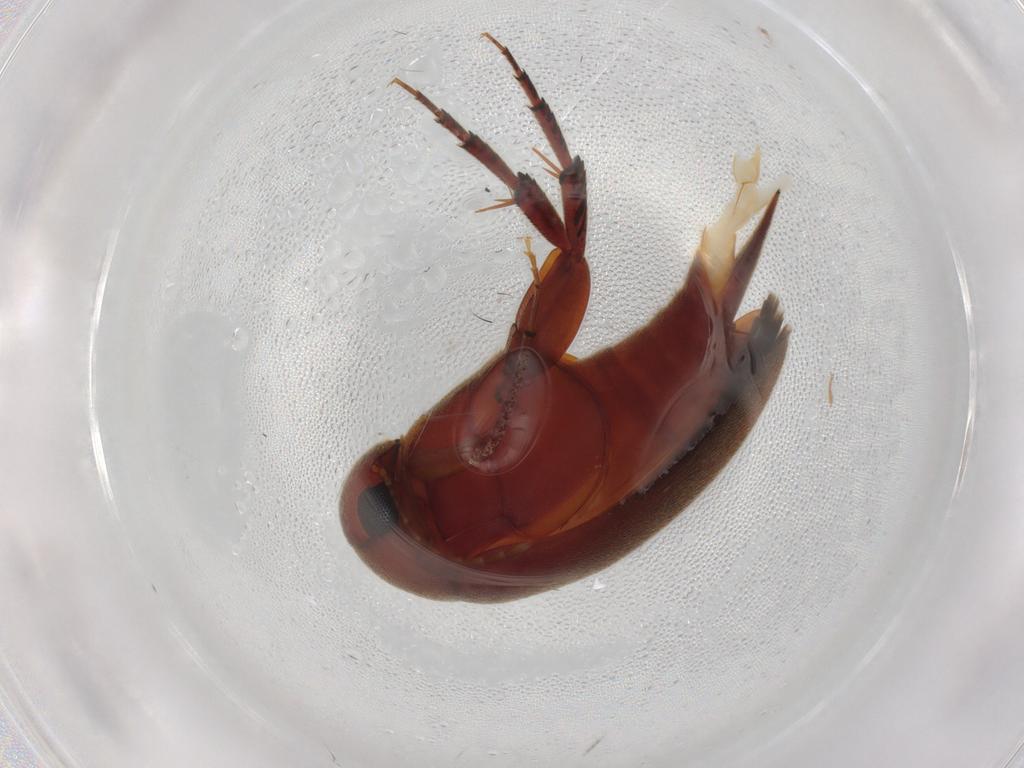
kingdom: Animalia
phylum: Arthropoda
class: Insecta
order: Coleoptera
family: Mordellidae
